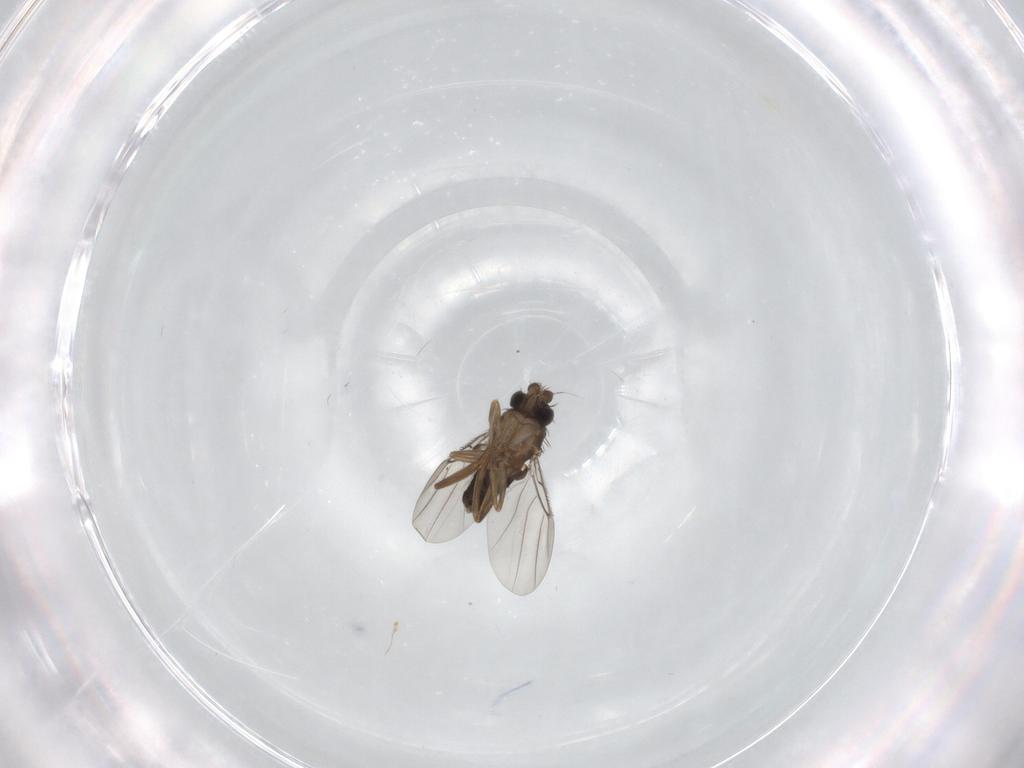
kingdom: Animalia
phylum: Arthropoda
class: Insecta
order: Diptera
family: Phoridae
